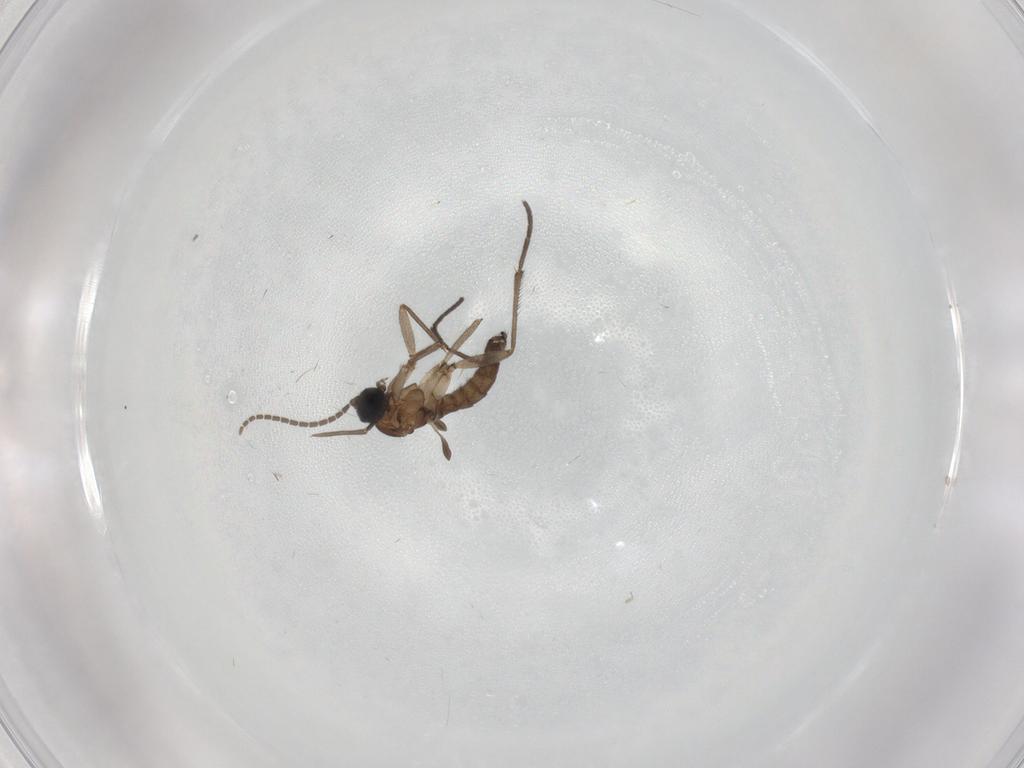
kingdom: Animalia
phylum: Arthropoda
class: Insecta
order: Diptera
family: Sciaridae
